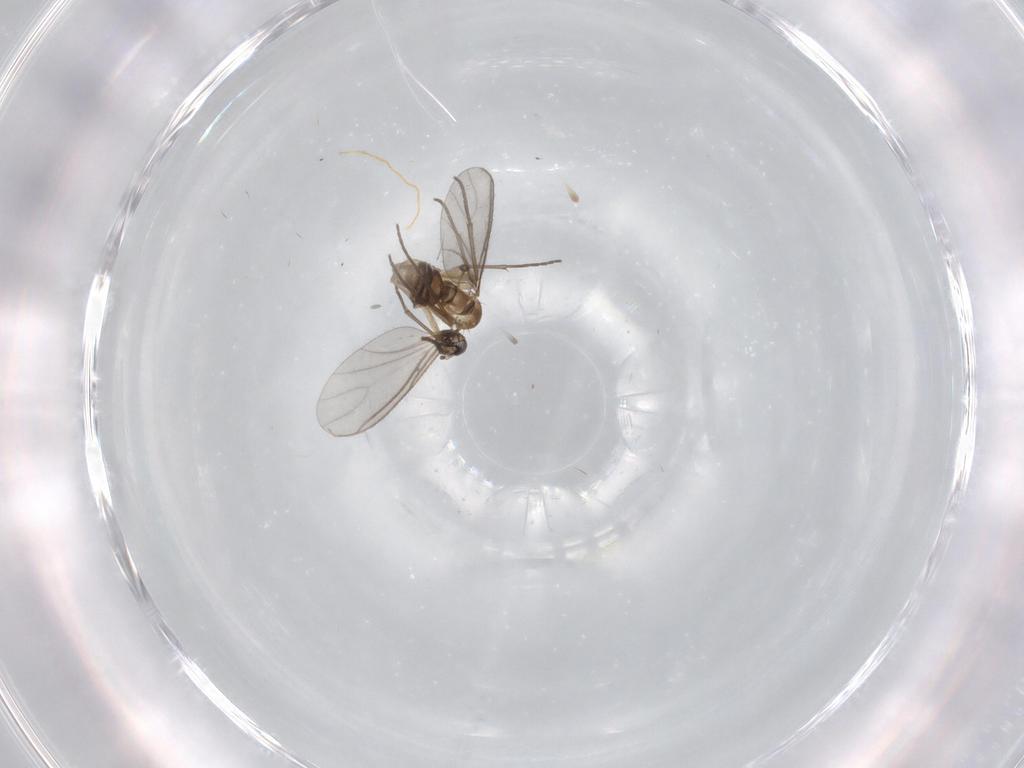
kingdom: Animalia
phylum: Arthropoda
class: Insecta
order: Diptera
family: Sciaridae
